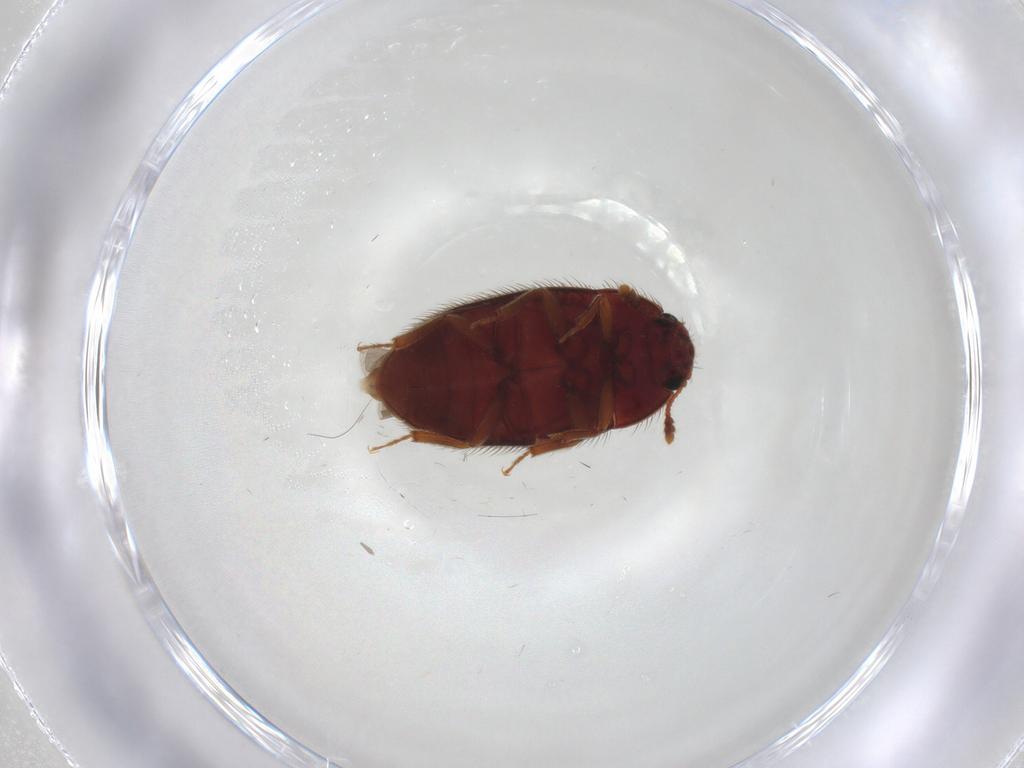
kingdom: Animalia
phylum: Arthropoda
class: Insecta
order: Coleoptera
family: Biphyllidae
